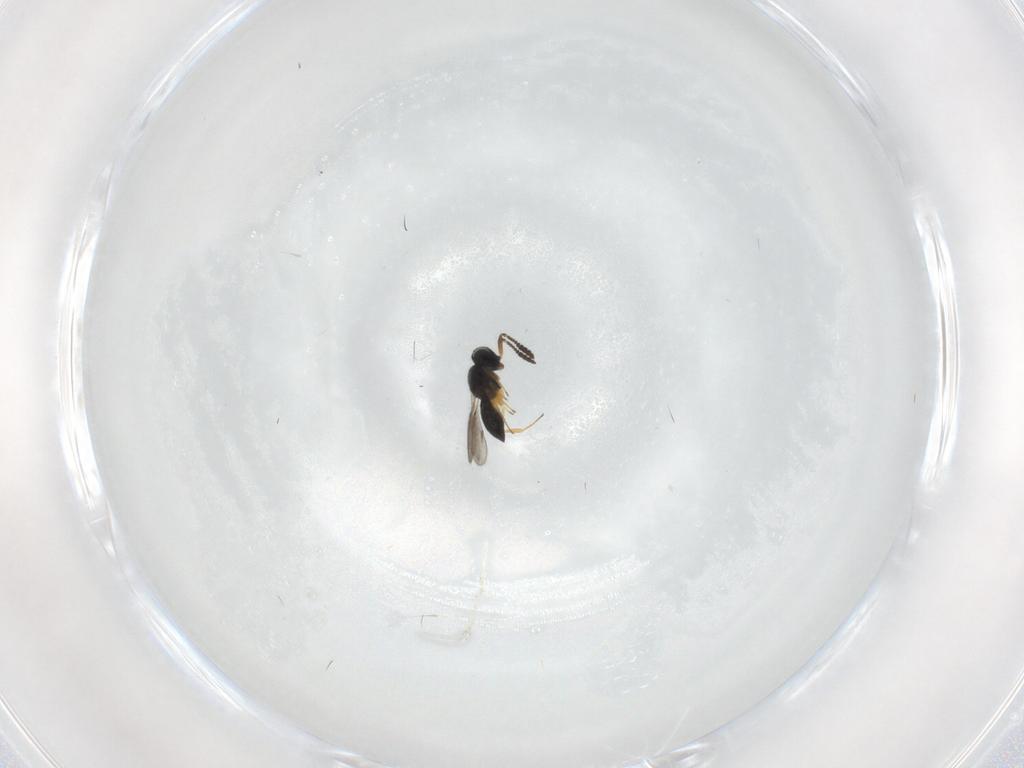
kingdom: Animalia
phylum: Arthropoda
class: Insecta
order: Hymenoptera
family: Scelionidae
